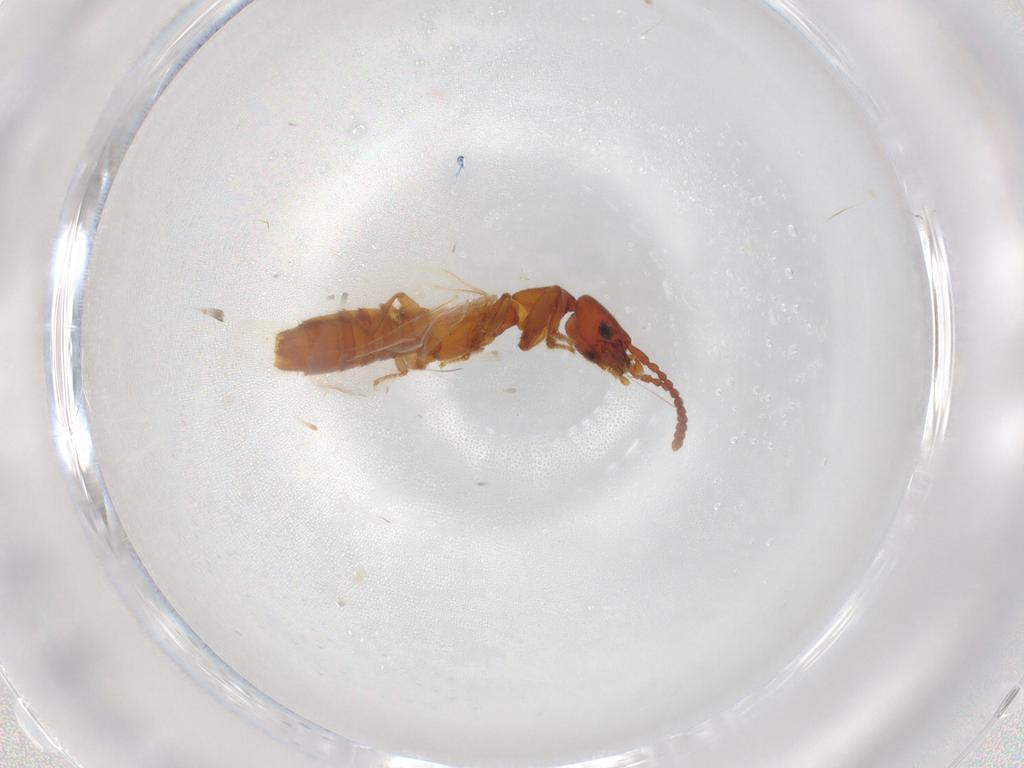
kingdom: Animalia
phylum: Arthropoda
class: Insecta
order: Coleoptera
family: Staphylinidae
